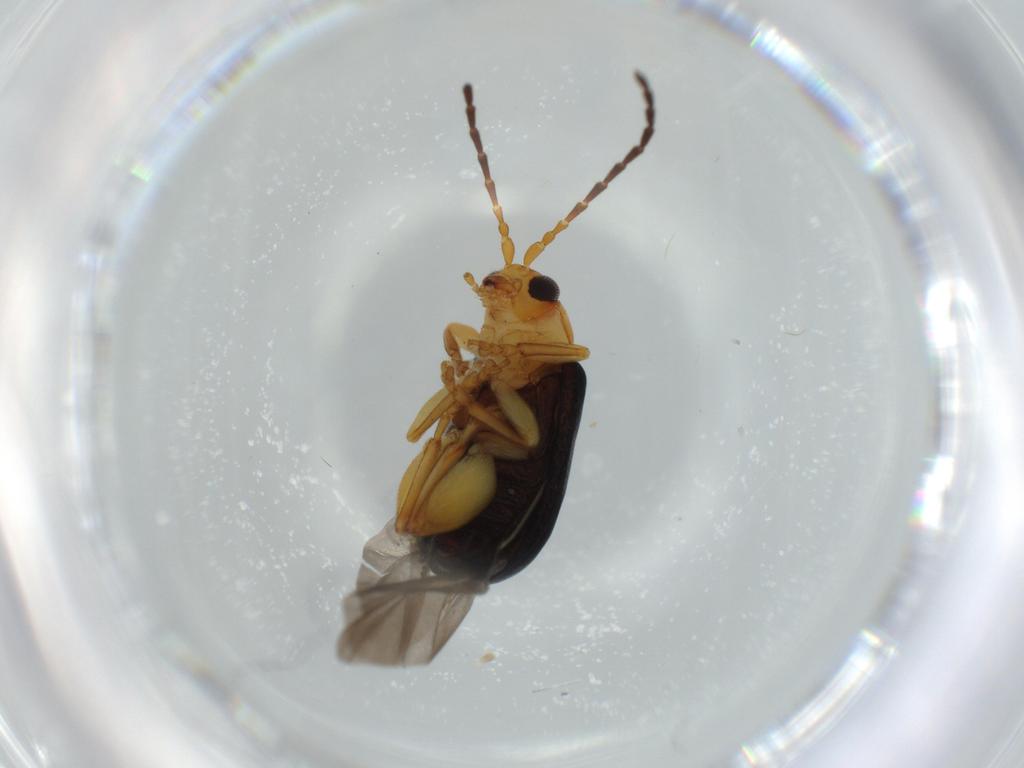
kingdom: Animalia
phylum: Arthropoda
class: Insecta
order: Coleoptera
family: Chrysomelidae
